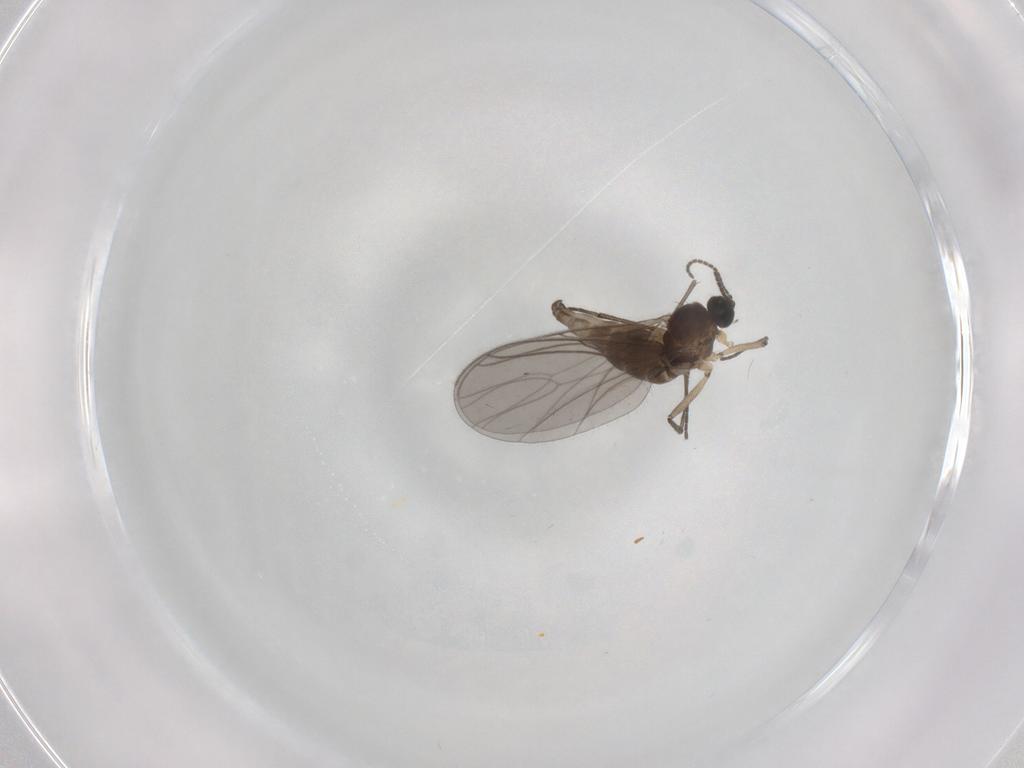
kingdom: Animalia
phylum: Arthropoda
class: Insecta
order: Diptera
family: Sciaridae
